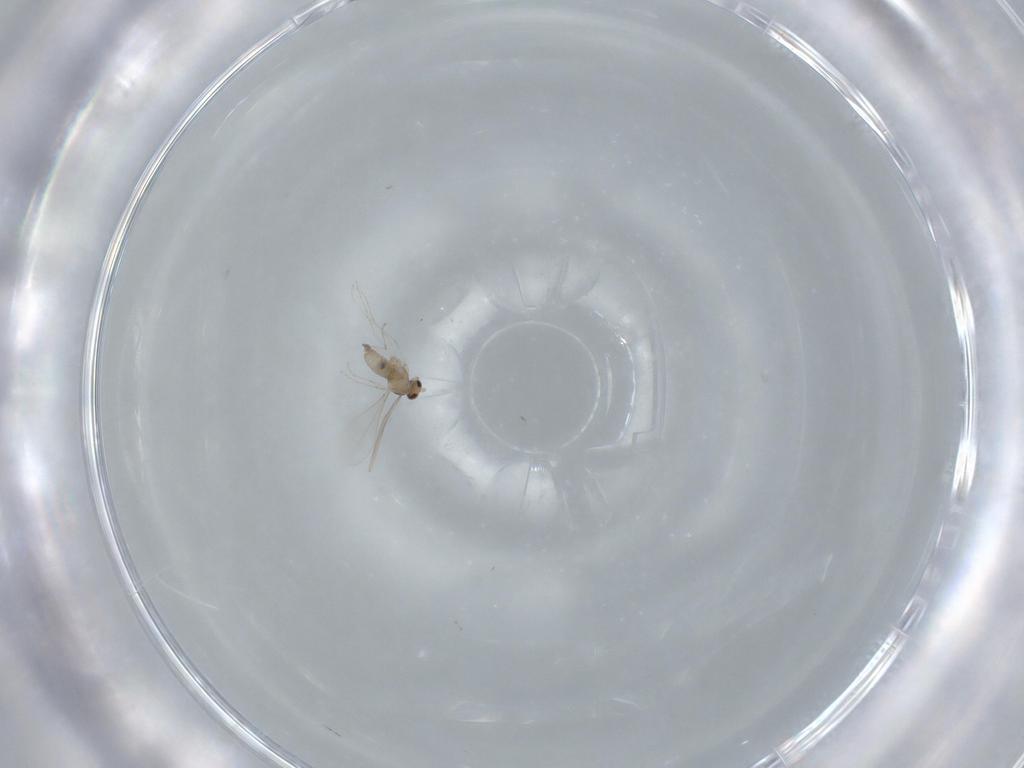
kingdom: Animalia
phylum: Arthropoda
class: Insecta
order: Diptera
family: Cecidomyiidae
